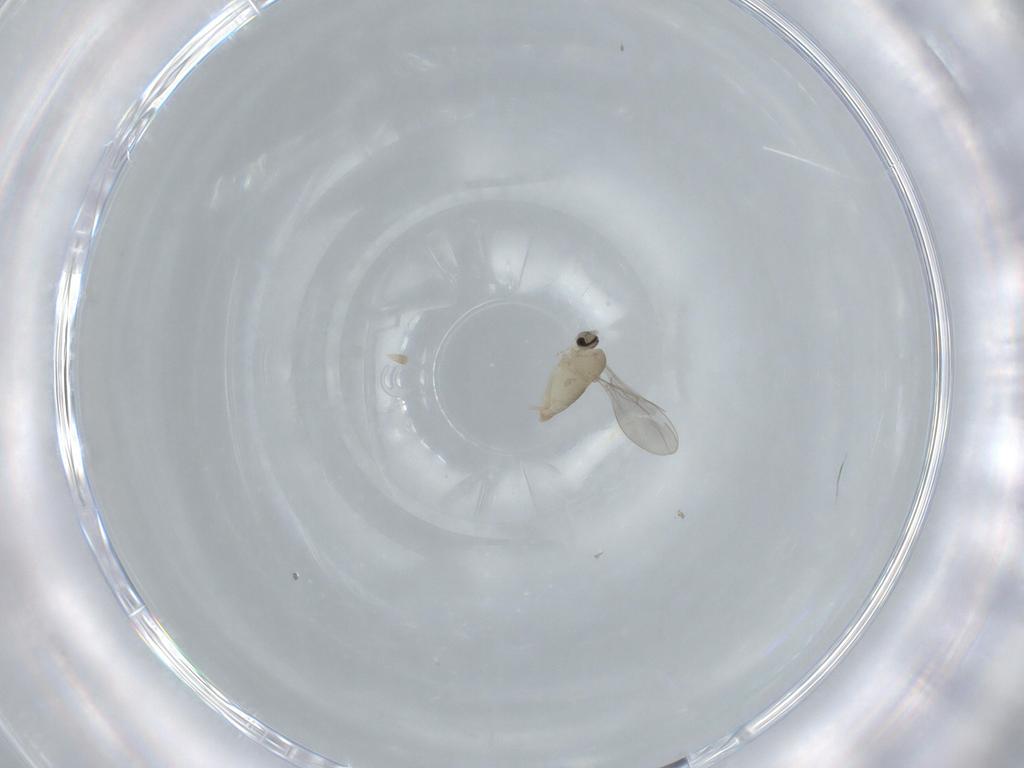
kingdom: Animalia
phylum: Arthropoda
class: Insecta
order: Diptera
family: Cecidomyiidae
